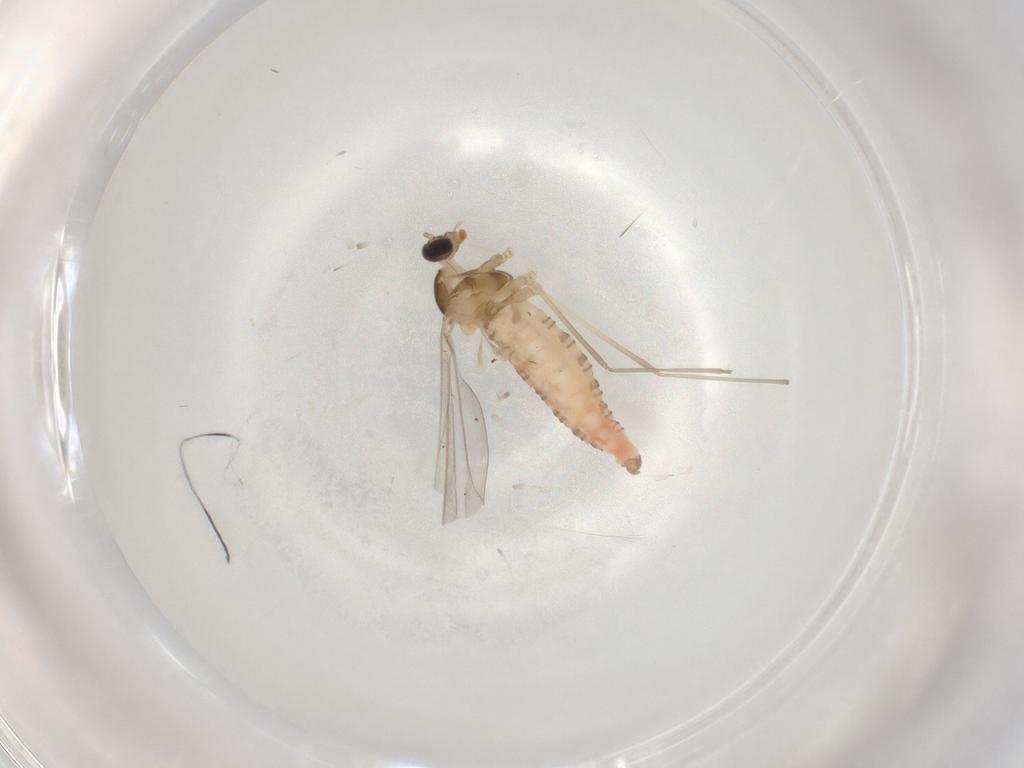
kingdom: Animalia
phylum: Arthropoda
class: Insecta
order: Diptera
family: Cecidomyiidae
